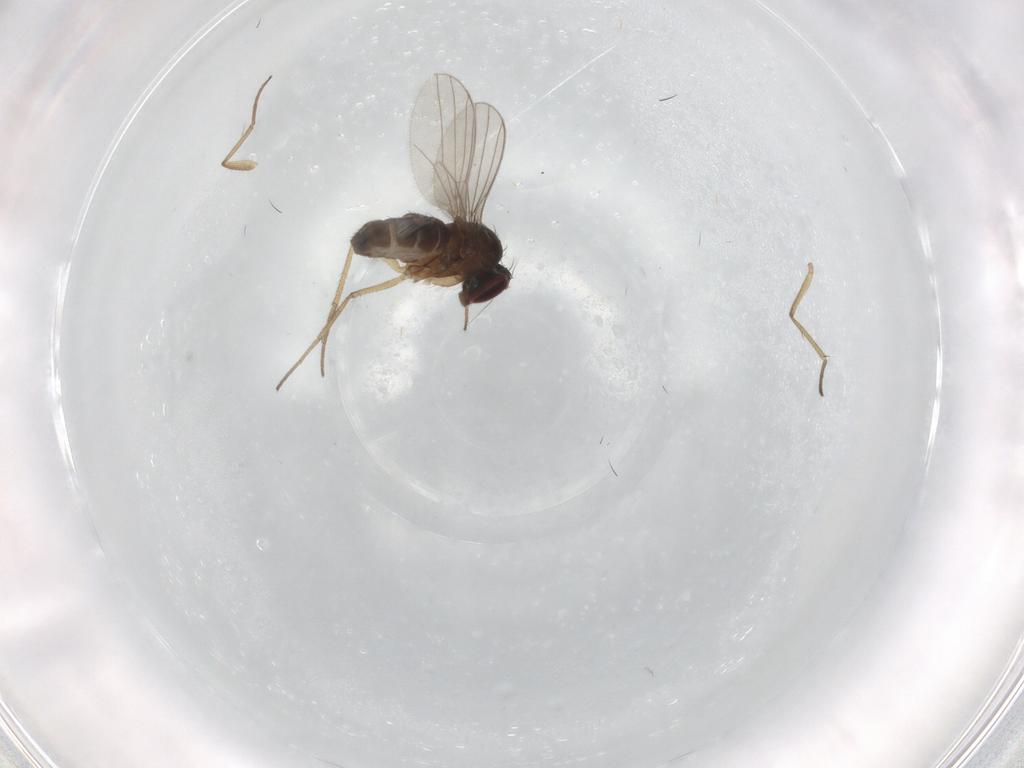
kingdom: Animalia
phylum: Arthropoda
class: Insecta
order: Diptera
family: Dolichopodidae
